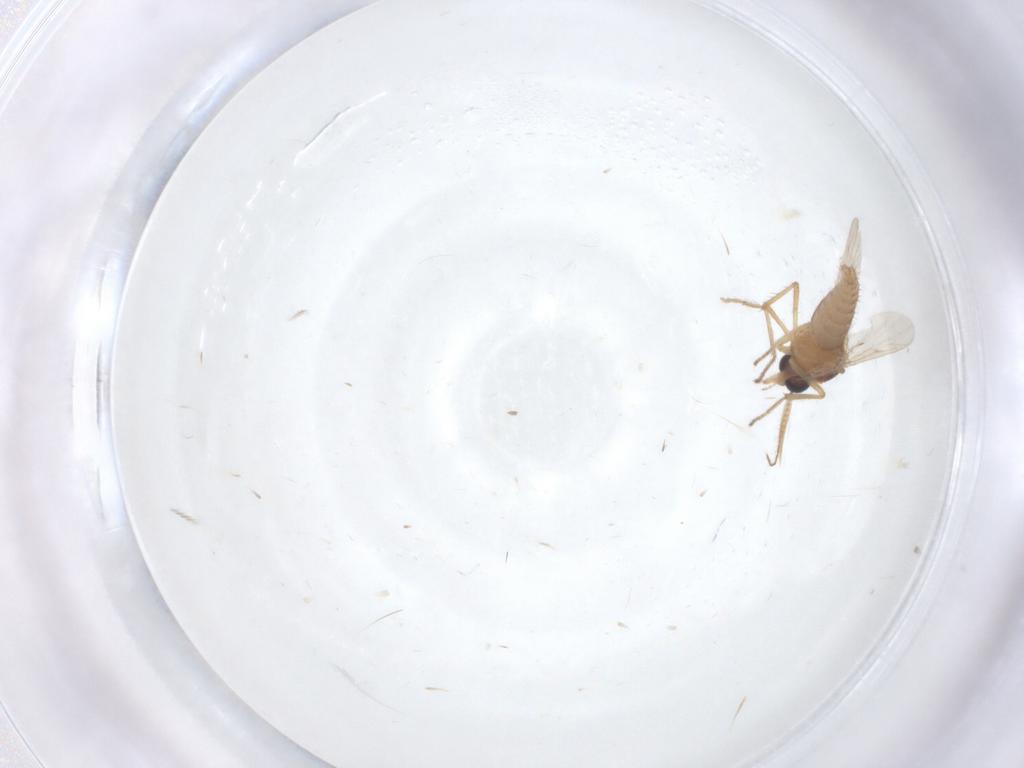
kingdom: Animalia
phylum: Arthropoda
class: Insecta
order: Diptera
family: Ceratopogonidae
